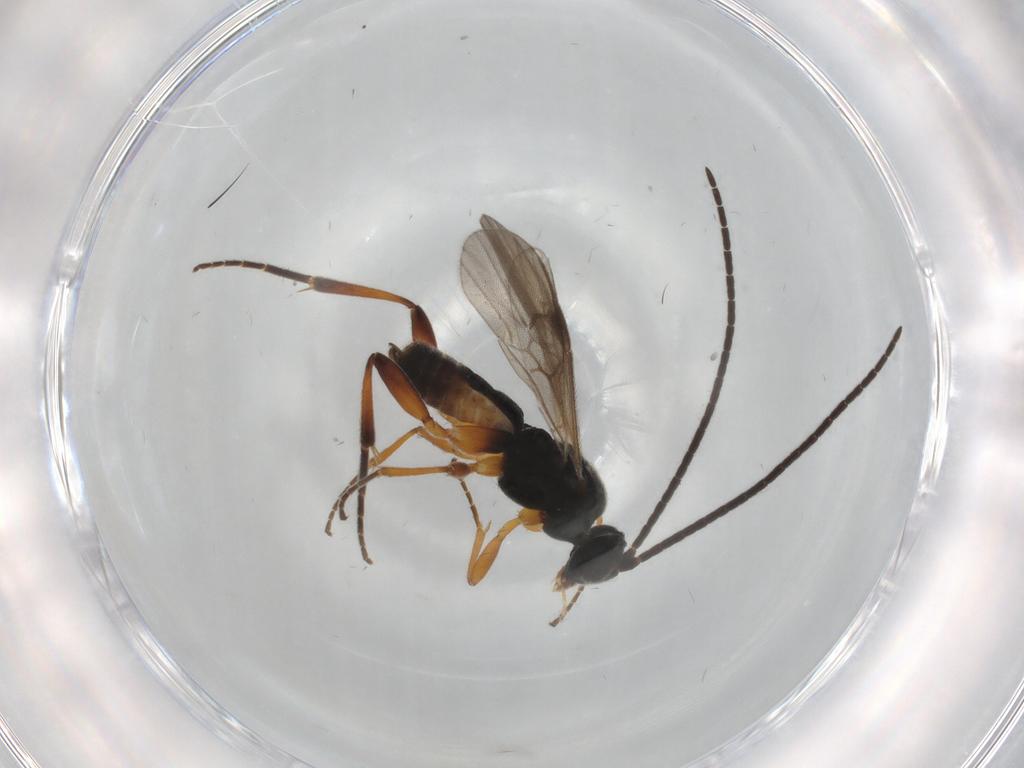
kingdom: Animalia
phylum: Arthropoda
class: Insecta
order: Hymenoptera
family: Braconidae
